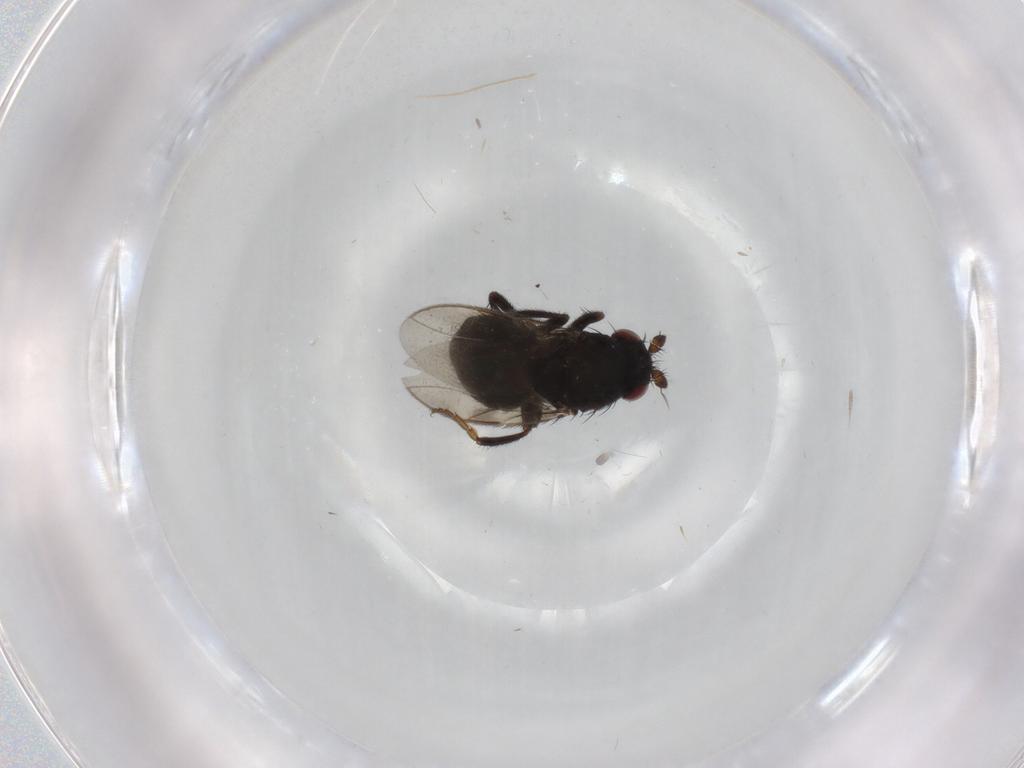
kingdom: Animalia
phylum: Arthropoda
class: Insecta
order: Diptera
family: Sphaeroceridae
